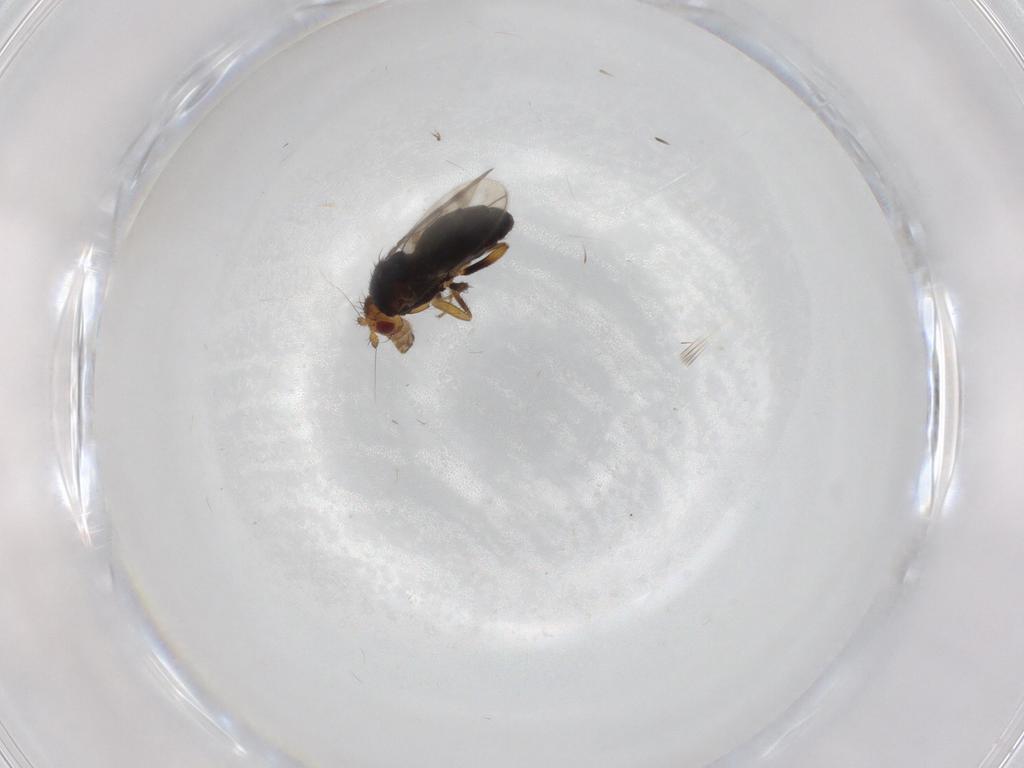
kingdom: Animalia
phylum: Arthropoda
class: Insecta
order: Diptera
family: Sphaeroceridae
